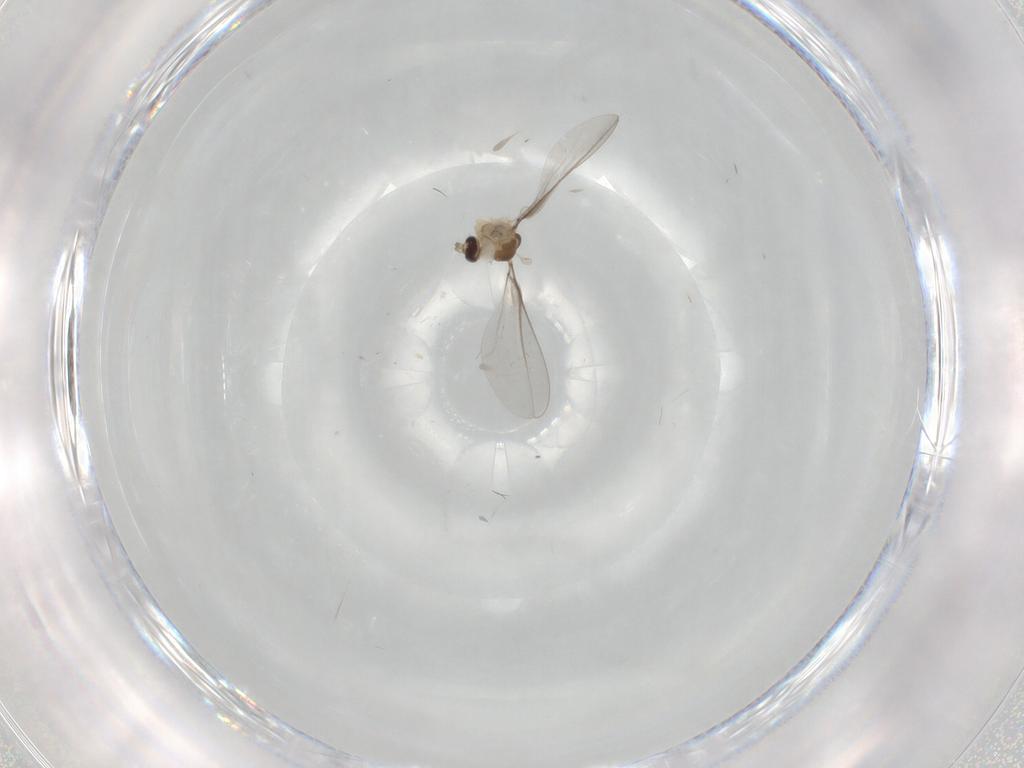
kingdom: Animalia
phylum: Arthropoda
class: Insecta
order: Diptera
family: Cecidomyiidae
